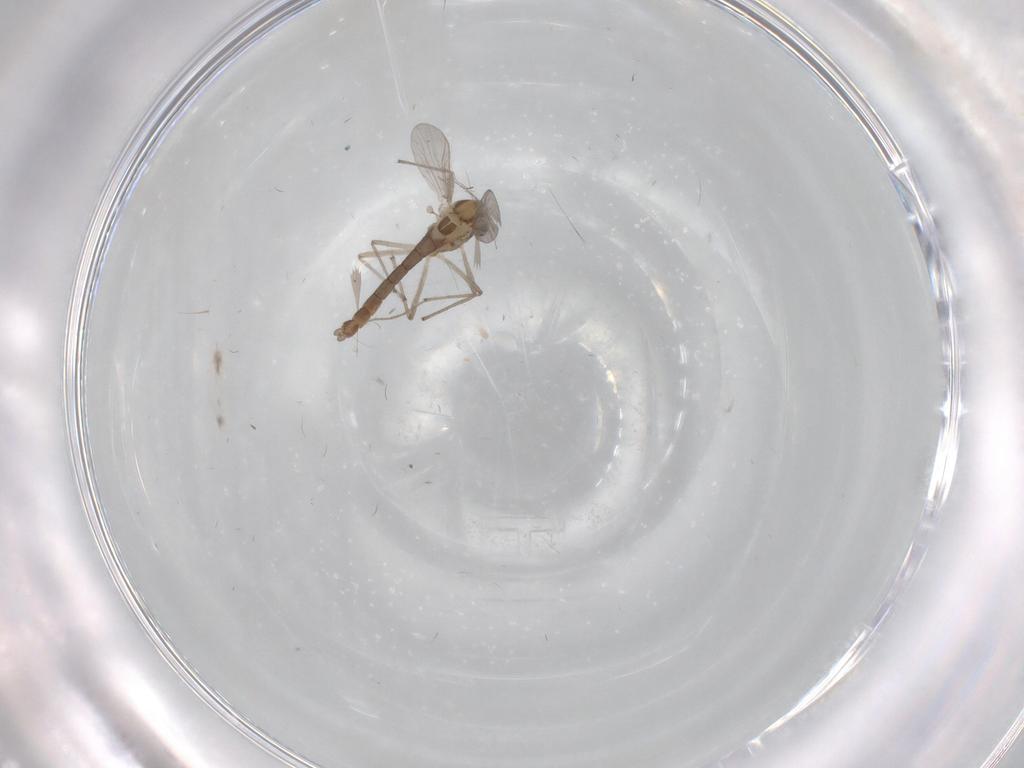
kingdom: Animalia
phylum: Arthropoda
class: Insecta
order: Diptera
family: Chironomidae
